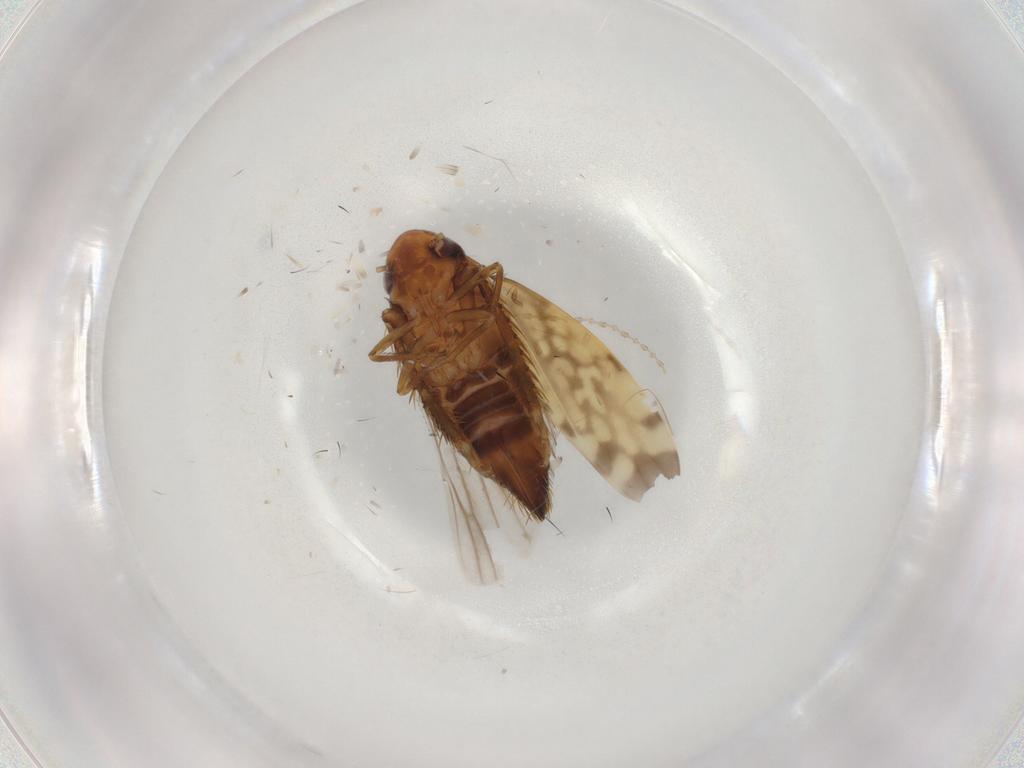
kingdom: Animalia
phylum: Arthropoda
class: Insecta
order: Hemiptera
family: Cicadellidae
